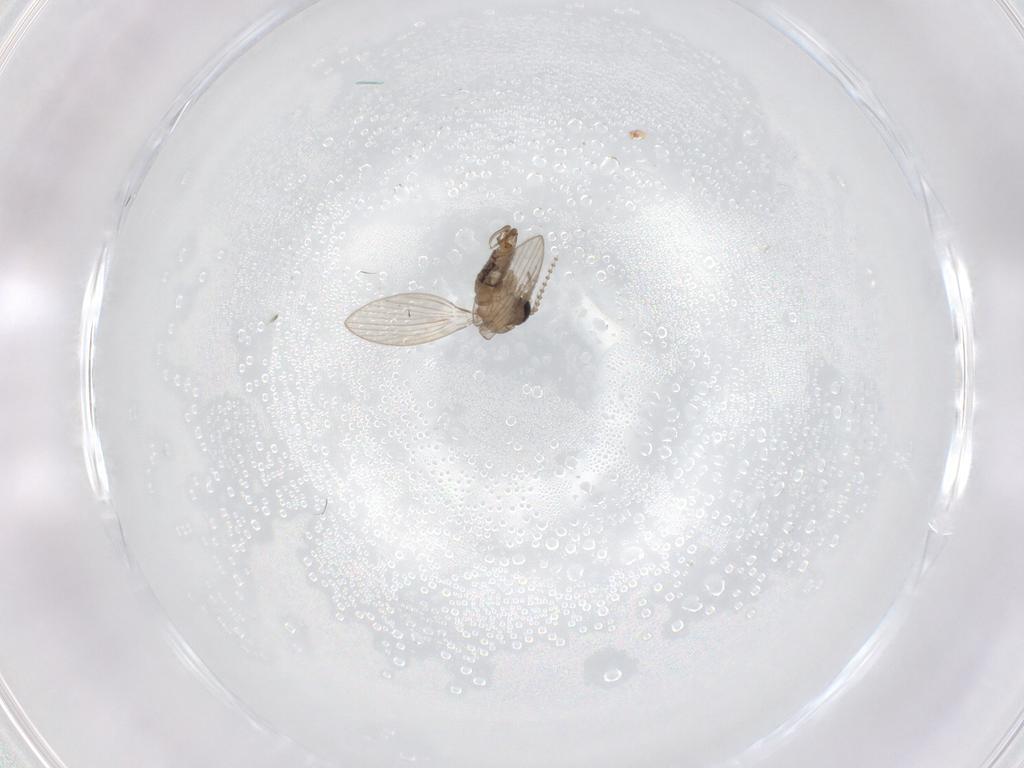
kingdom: Animalia
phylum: Arthropoda
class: Insecta
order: Diptera
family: Psychodidae
